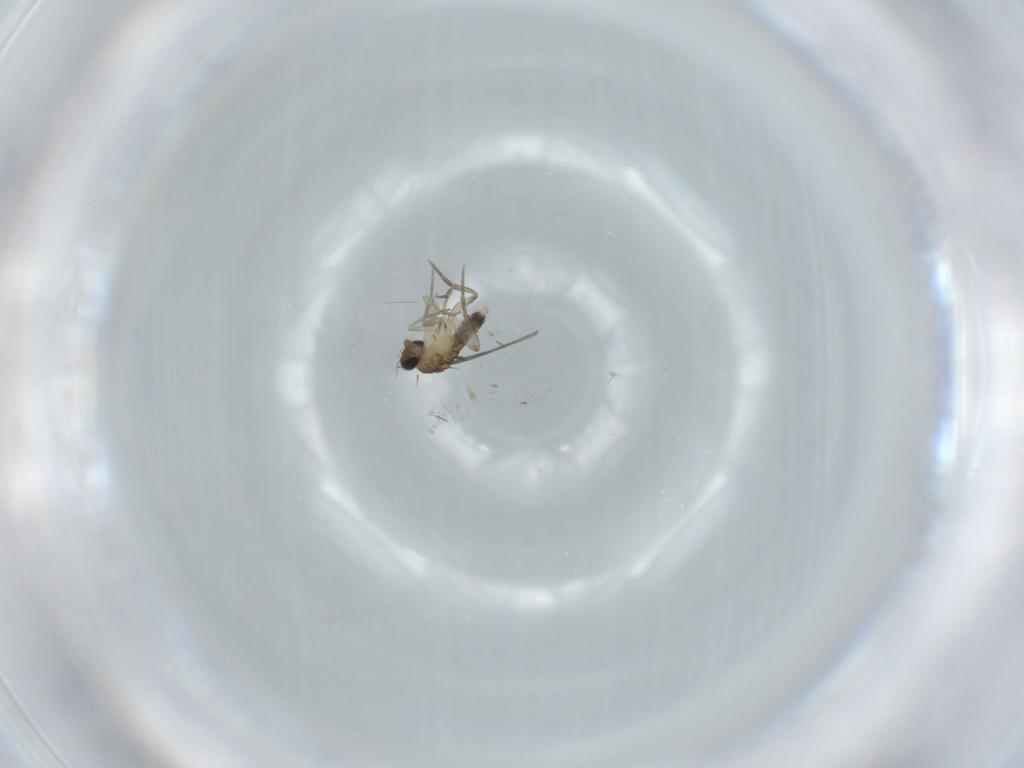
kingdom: Animalia
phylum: Arthropoda
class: Insecta
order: Diptera
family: Phoridae
